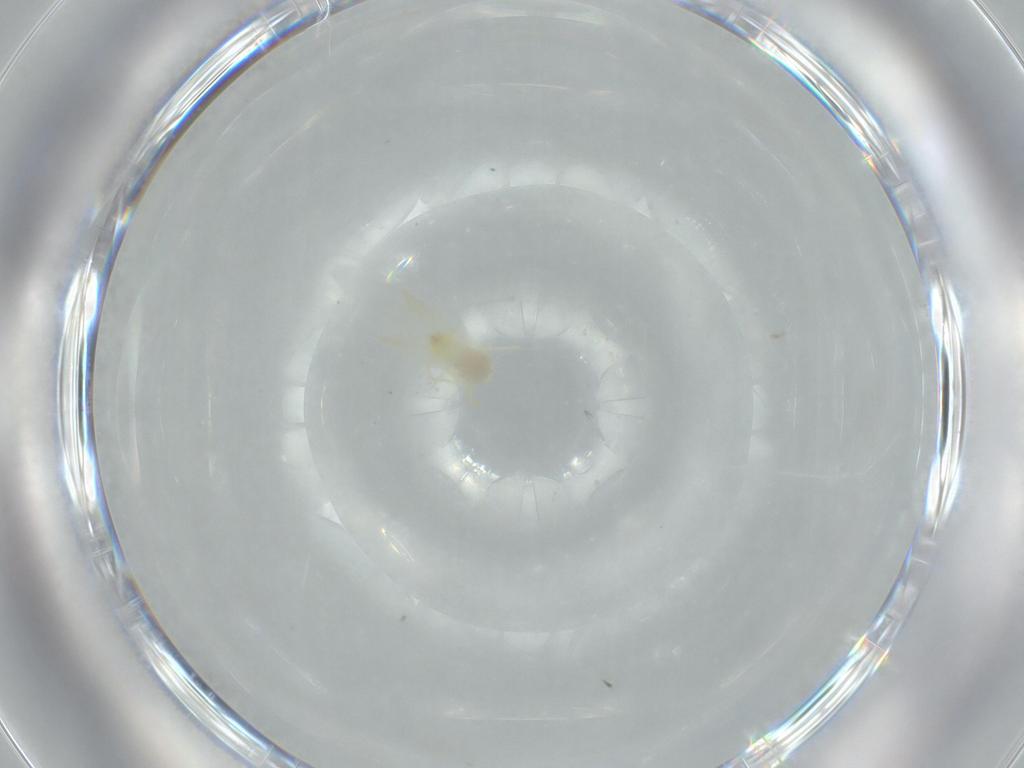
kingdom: Animalia
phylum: Arthropoda
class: Insecta
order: Hemiptera
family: Aleyrodidae
